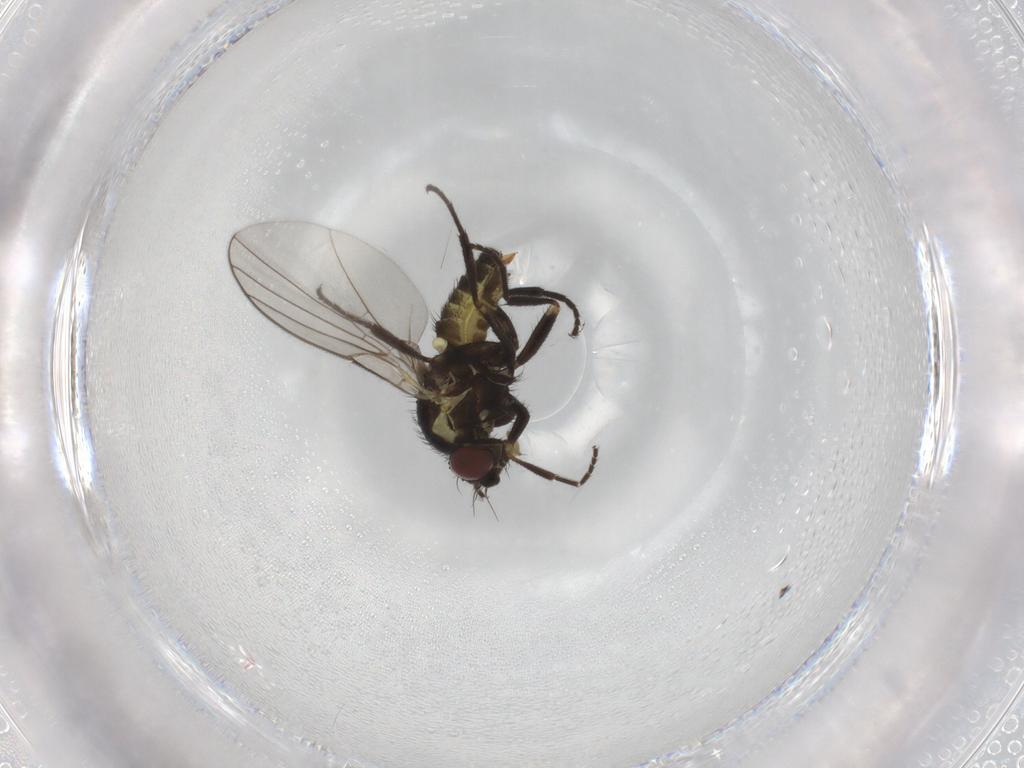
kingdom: Animalia
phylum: Arthropoda
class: Insecta
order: Diptera
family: Agromyzidae
